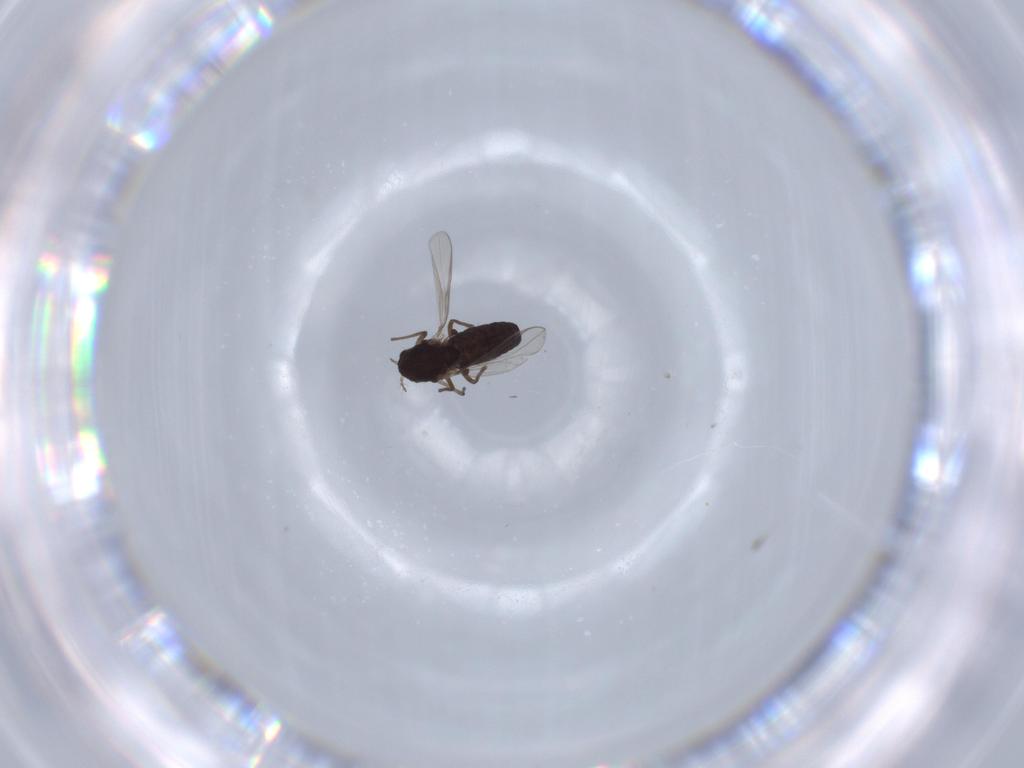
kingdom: Animalia
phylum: Arthropoda
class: Insecta
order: Diptera
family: Chironomidae
